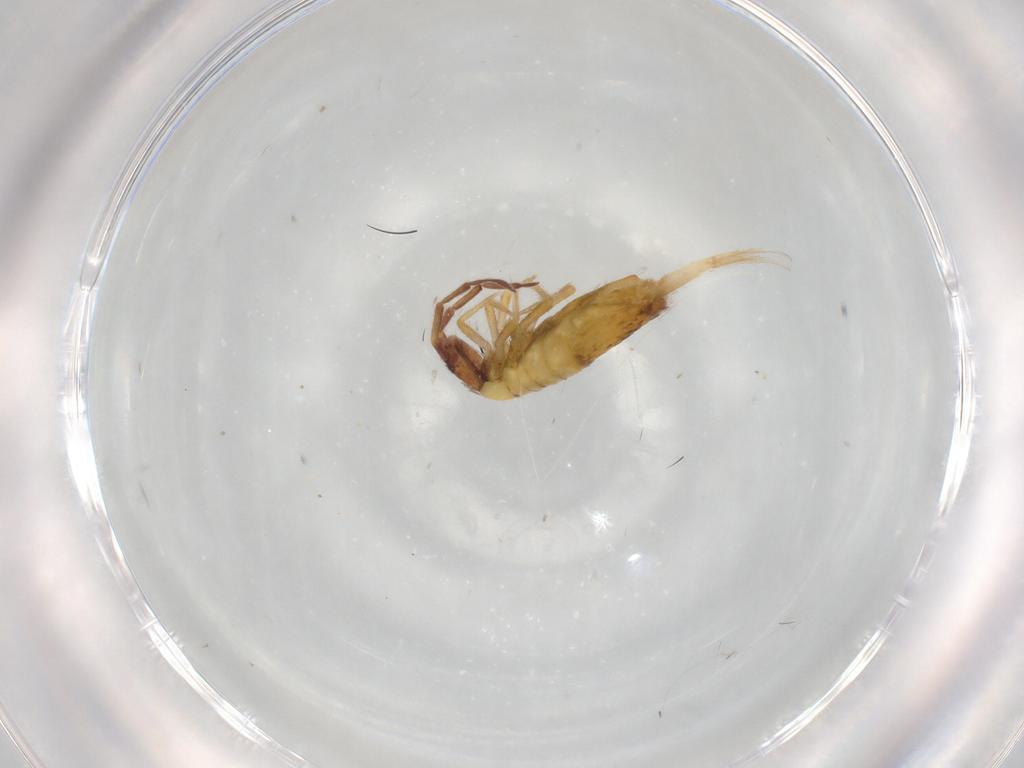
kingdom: Animalia
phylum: Arthropoda
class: Collembola
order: Entomobryomorpha
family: Entomobryidae
